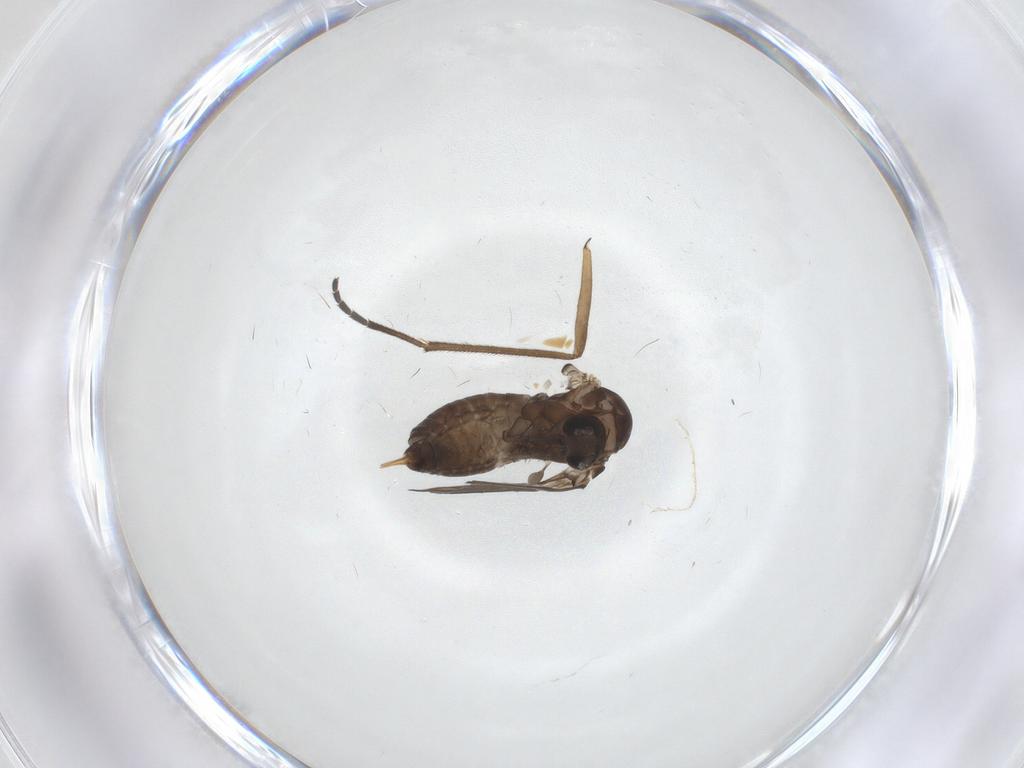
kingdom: Animalia
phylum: Arthropoda
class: Insecta
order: Diptera
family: Psychodidae
